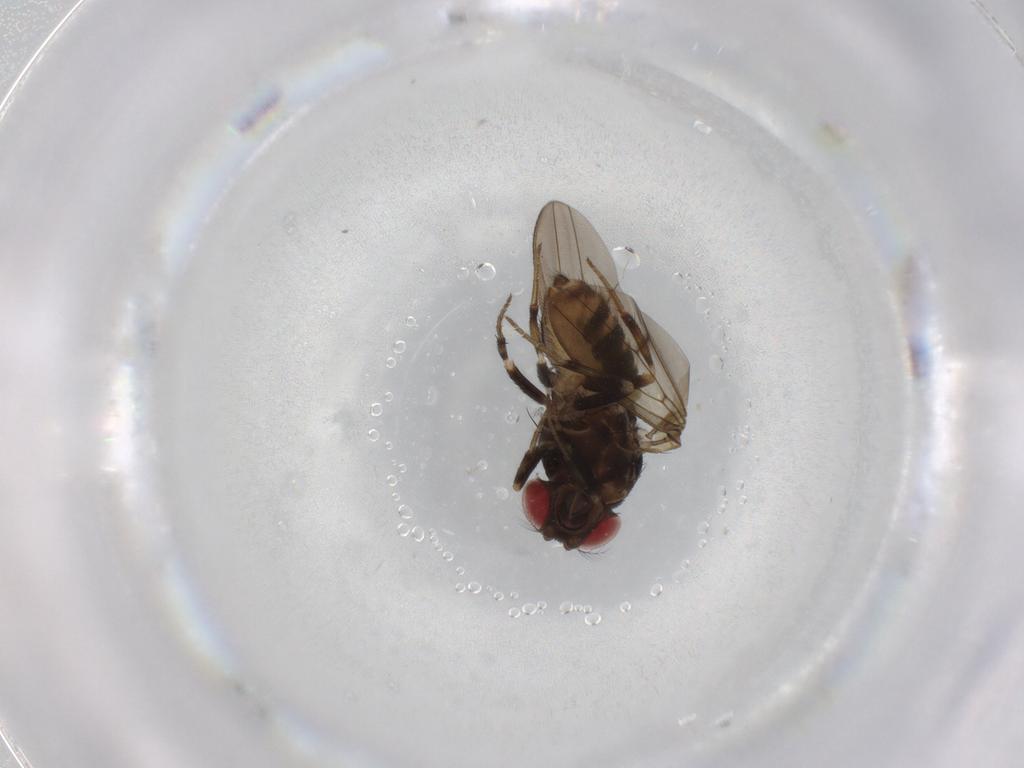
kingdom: Animalia
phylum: Arthropoda
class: Insecta
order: Diptera
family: Drosophilidae
